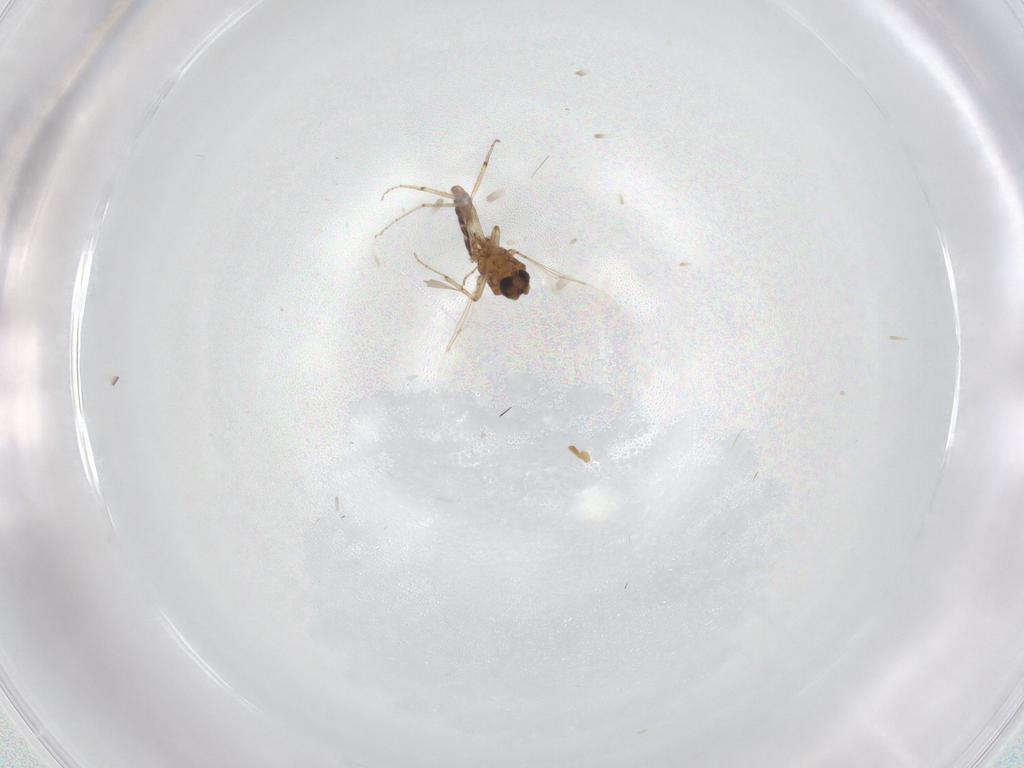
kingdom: Animalia
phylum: Arthropoda
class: Insecta
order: Diptera
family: Ceratopogonidae
